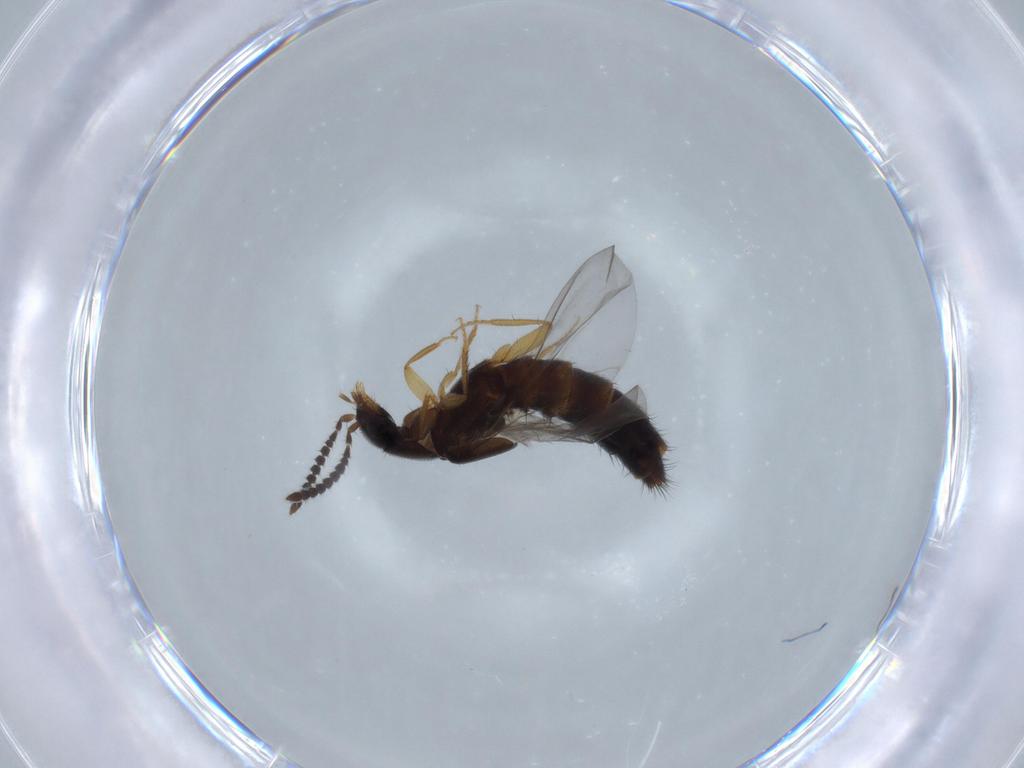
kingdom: Animalia
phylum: Arthropoda
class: Insecta
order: Coleoptera
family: Staphylinidae
